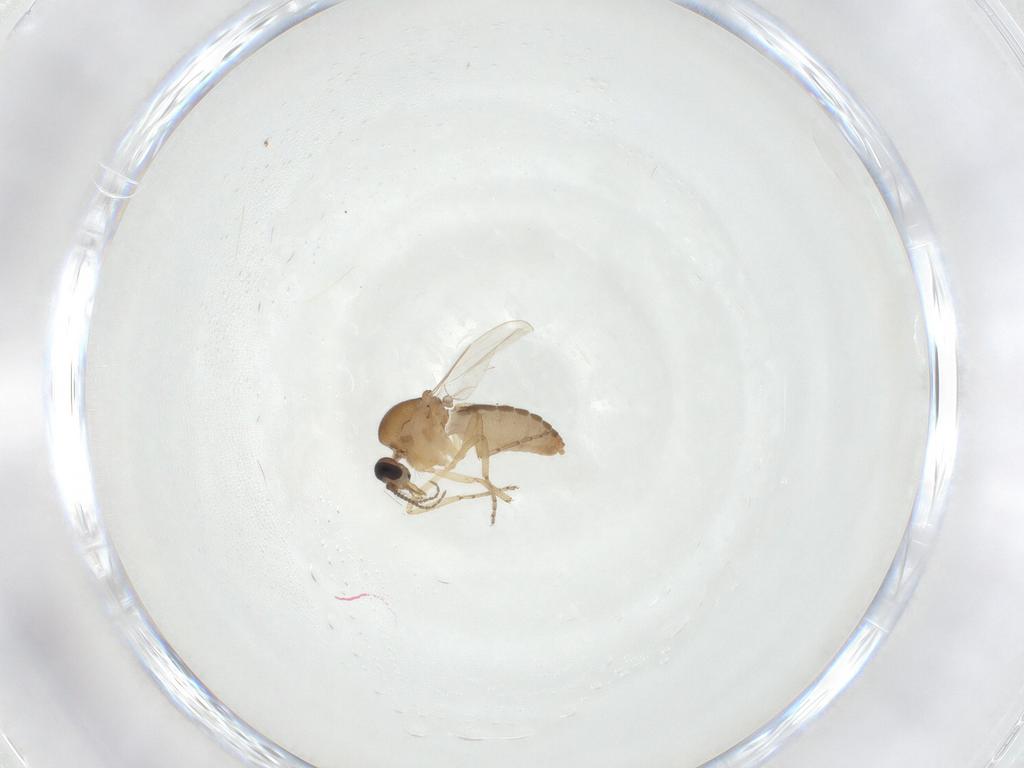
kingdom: Animalia
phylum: Arthropoda
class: Insecta
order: Diptera
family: Ceratopogonidae
